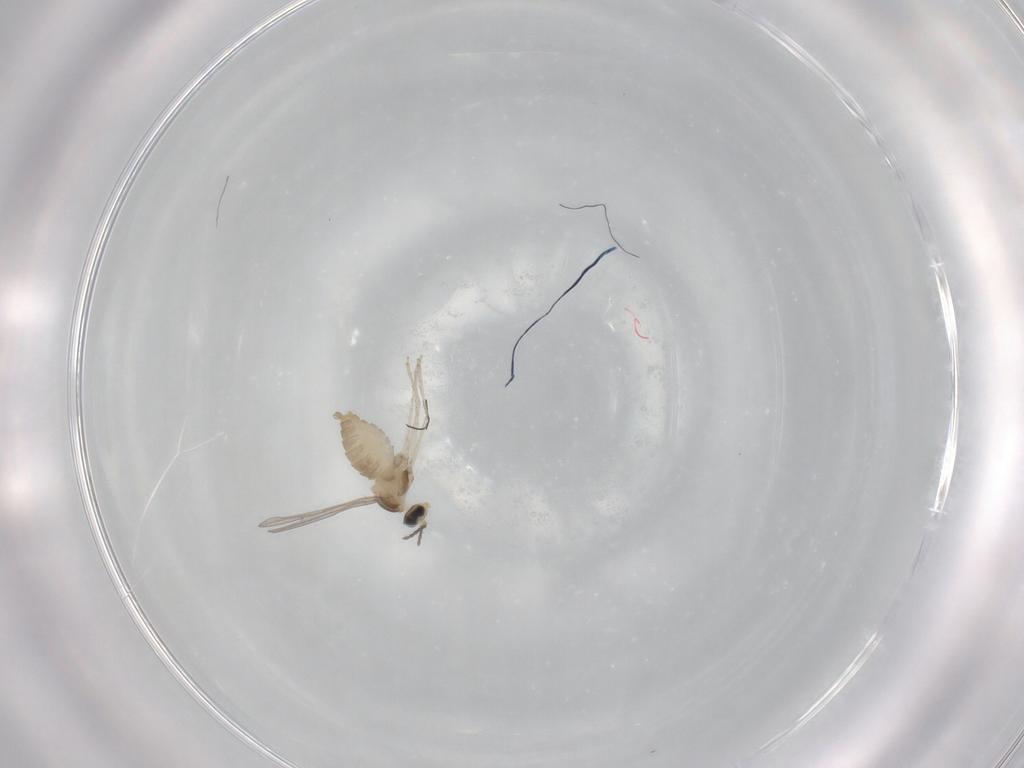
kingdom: Animalia
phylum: Arthropoda
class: Insecta
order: Diptera
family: Cecidomyiidae
